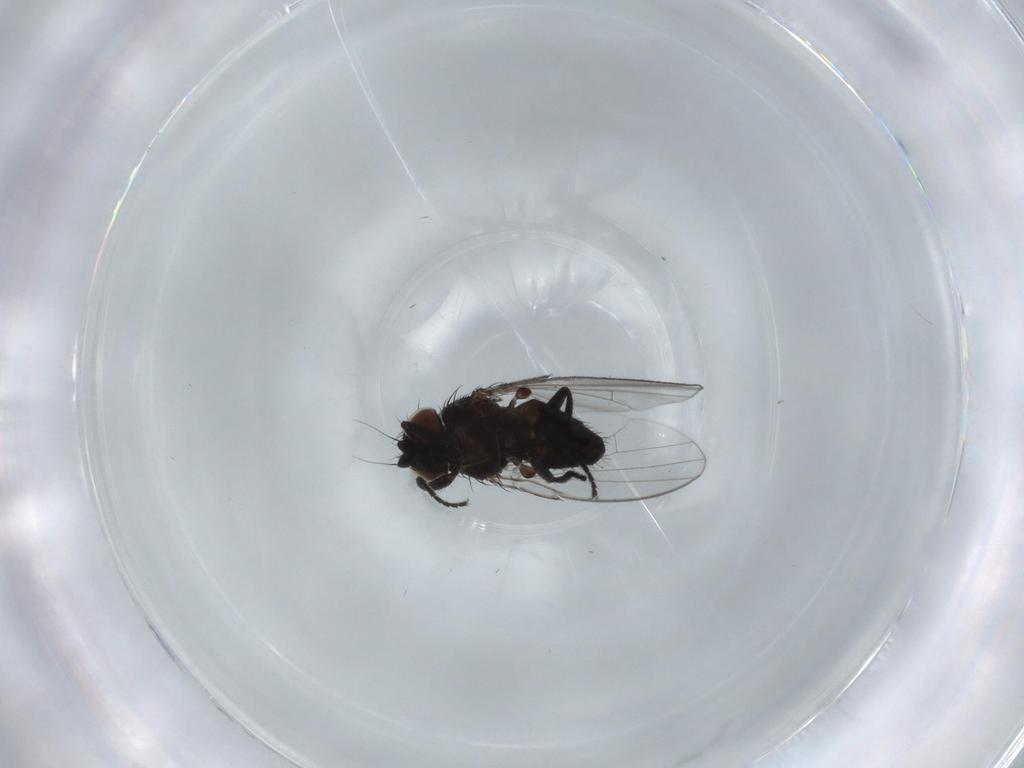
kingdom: Animalia
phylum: Arthropoda
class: Insecta
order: Diptera
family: Milichiidae
